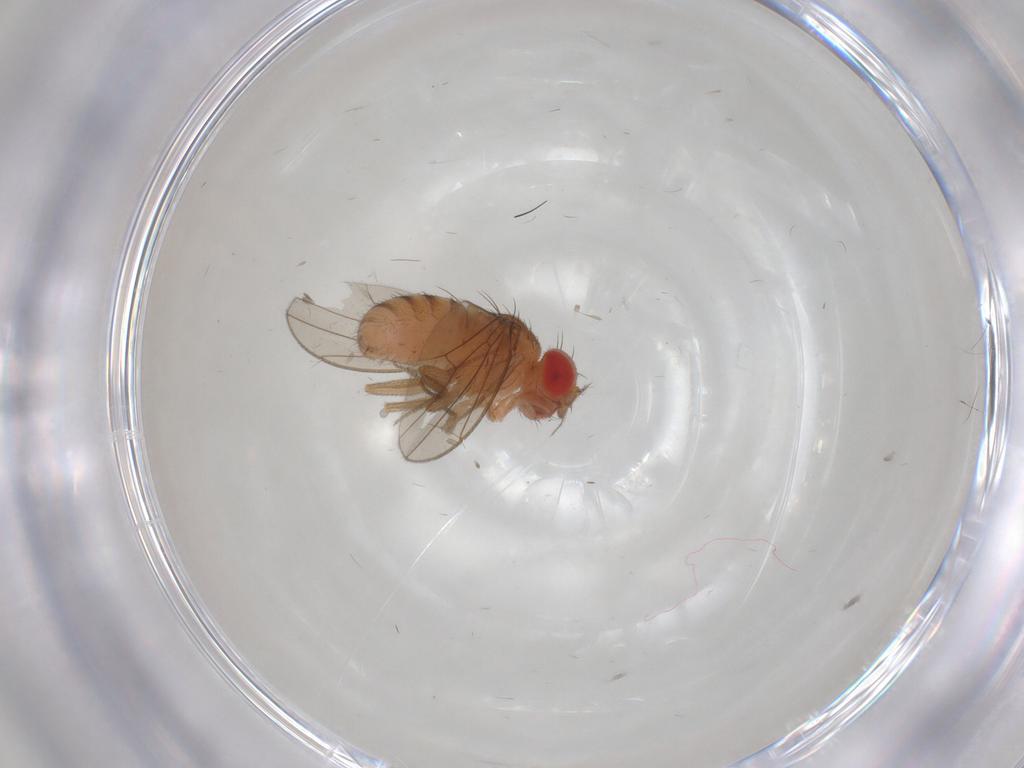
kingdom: Animalia
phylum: Arthropoda
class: Insecta
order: Diptera
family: Drosophilidae
